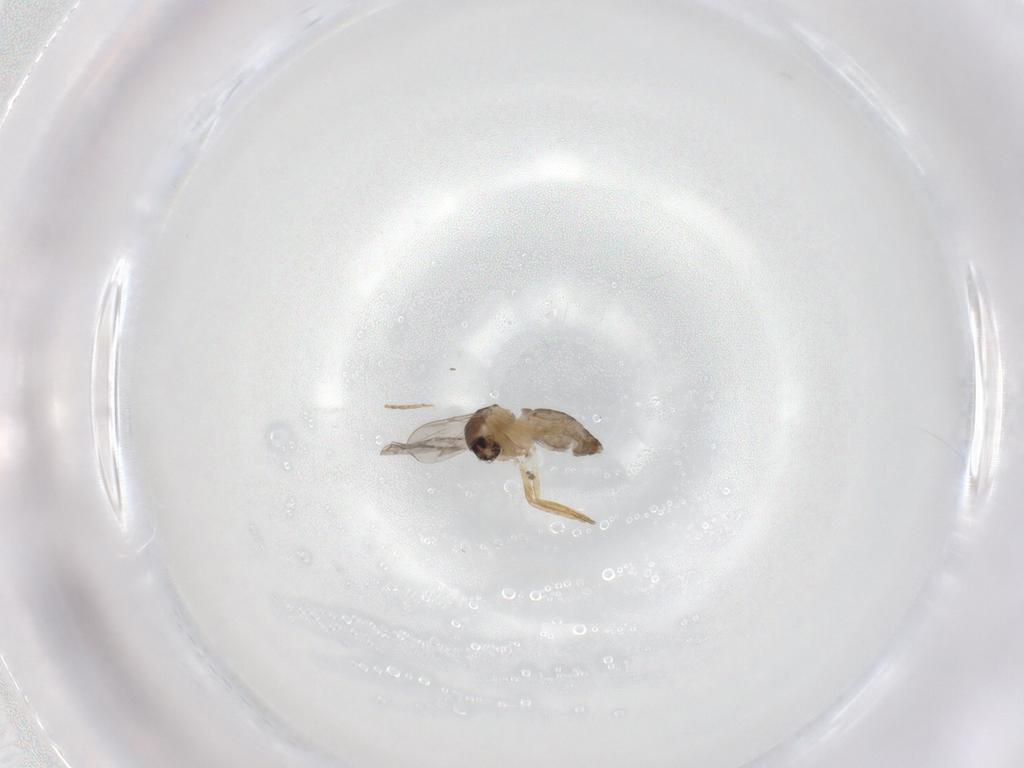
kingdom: Animalia
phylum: Arthropoda
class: Insecta
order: Diptera
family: Ceratopogonidae
